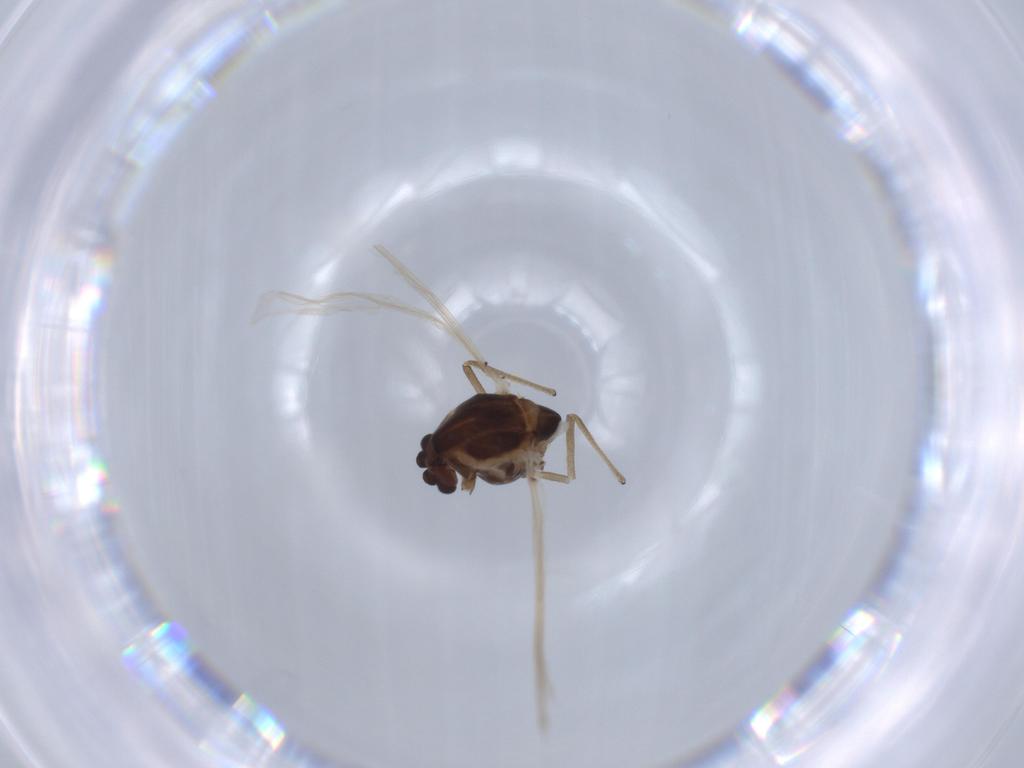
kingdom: Animalia
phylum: Arthropoda
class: Insecta
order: Diptera
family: Chironomidae
